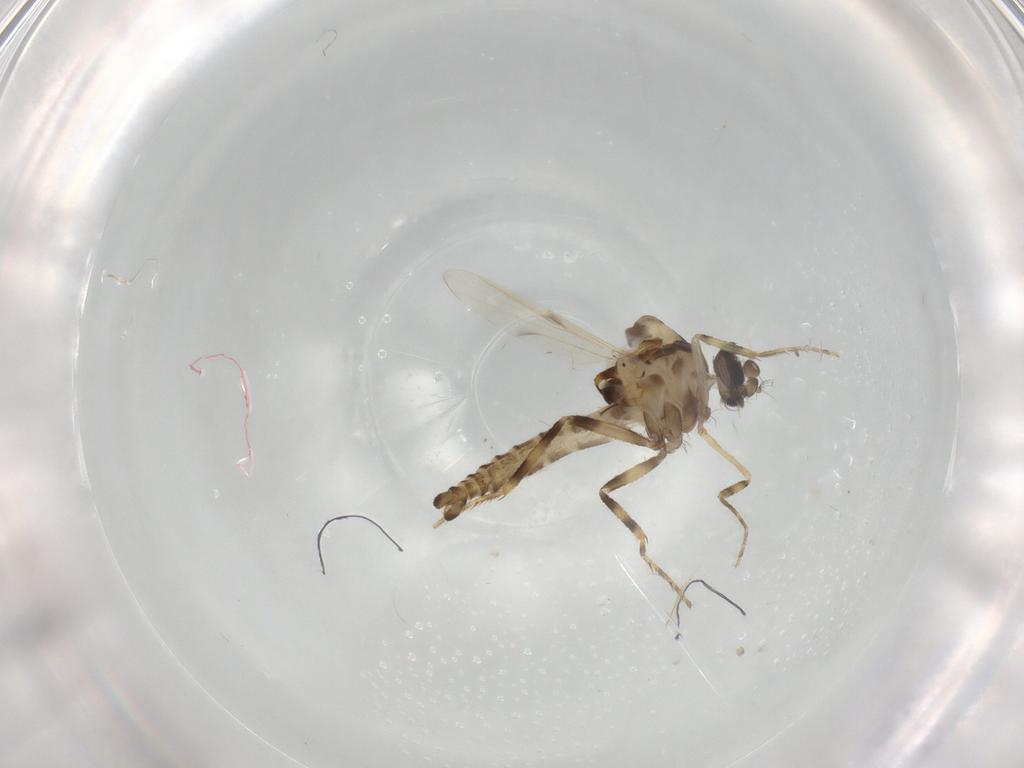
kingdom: Animalia
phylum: Arthropoda
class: Insecta
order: Diptera
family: Ceratopogonidae
